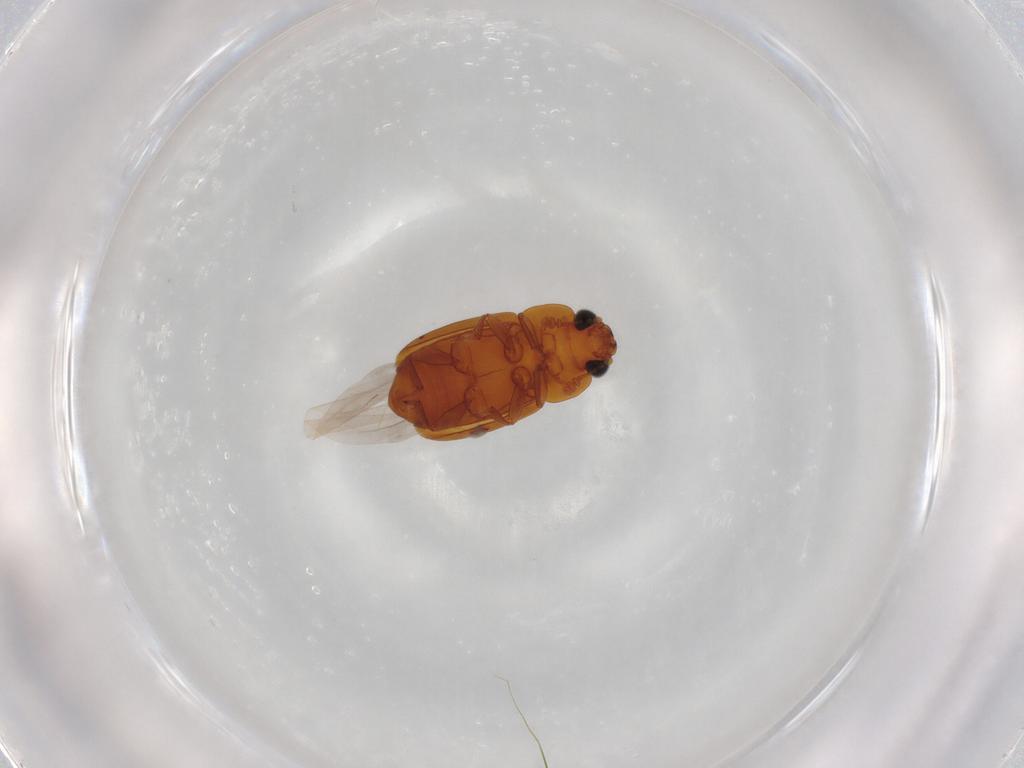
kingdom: Animalia
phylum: Arthropoda
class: Insecta
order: Coleoptera
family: Nitidulidae
